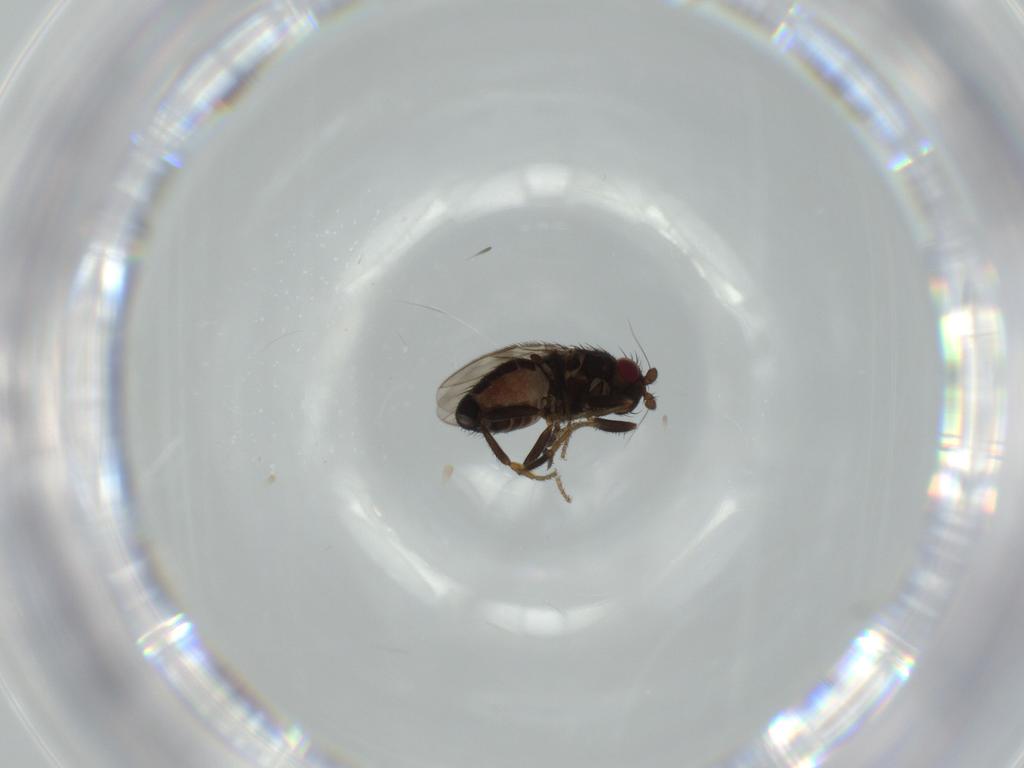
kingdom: Animalia
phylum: Arthropoda
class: Insecta
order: Diptera
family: Sphaeroceridae
